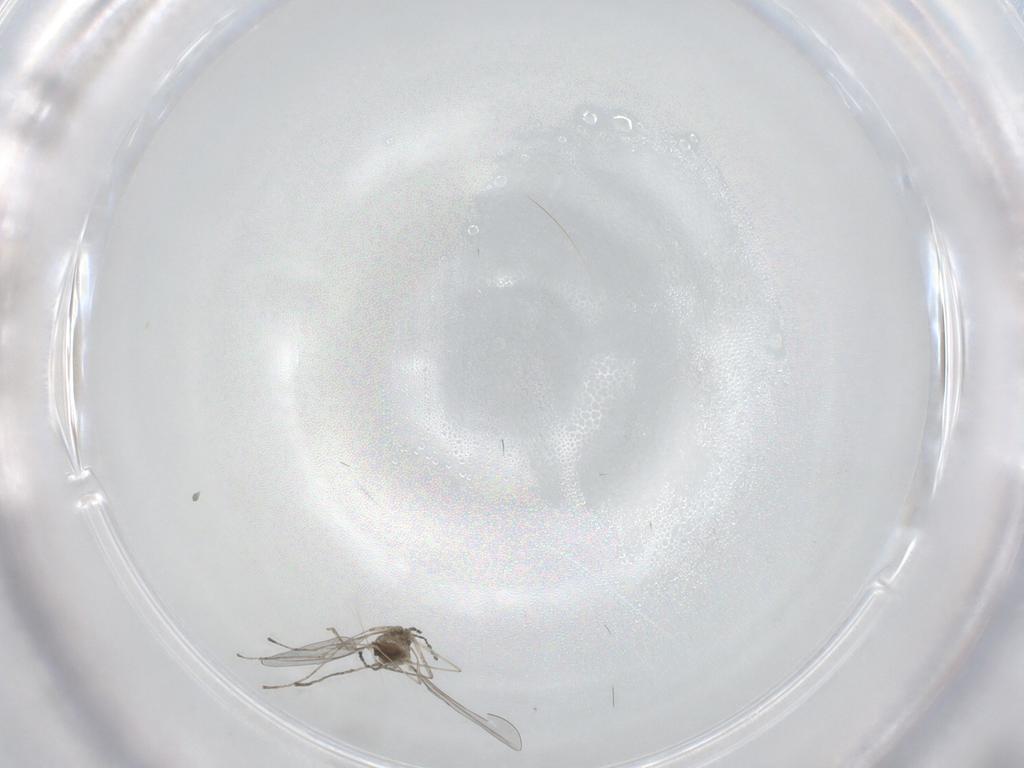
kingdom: Animalia
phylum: Arthropoda
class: Insecta
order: Diptera
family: Cecidomyiidae
